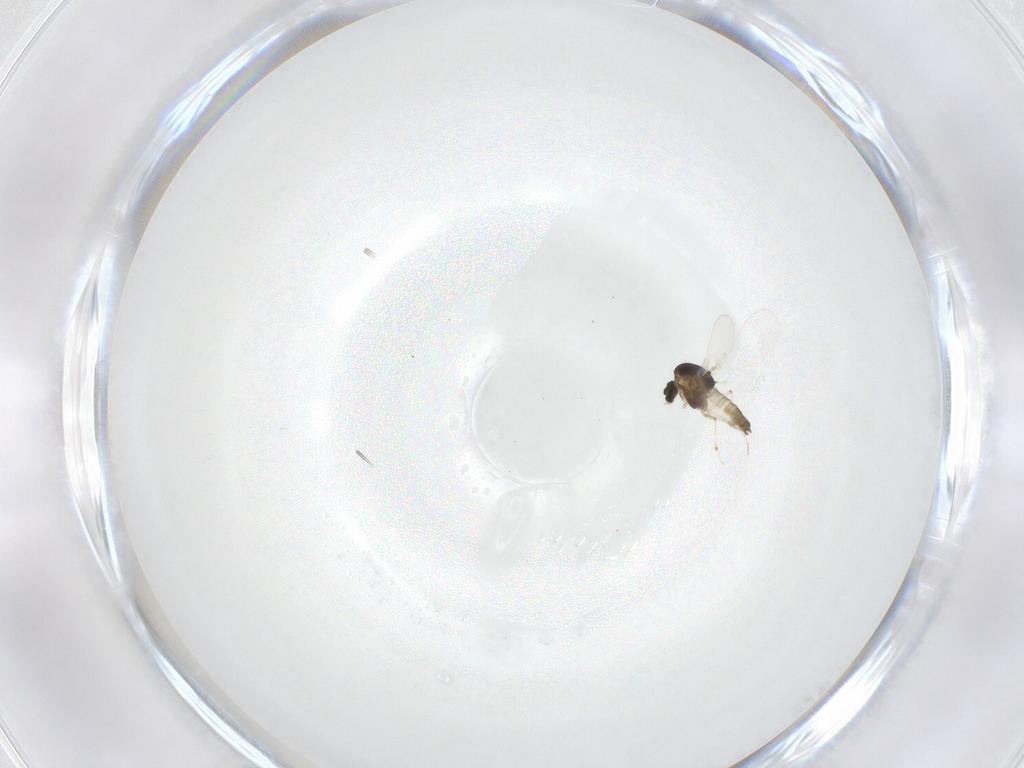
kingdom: Animalia
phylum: Arthropoda
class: Insecta
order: Diptera
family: Chironomidae
